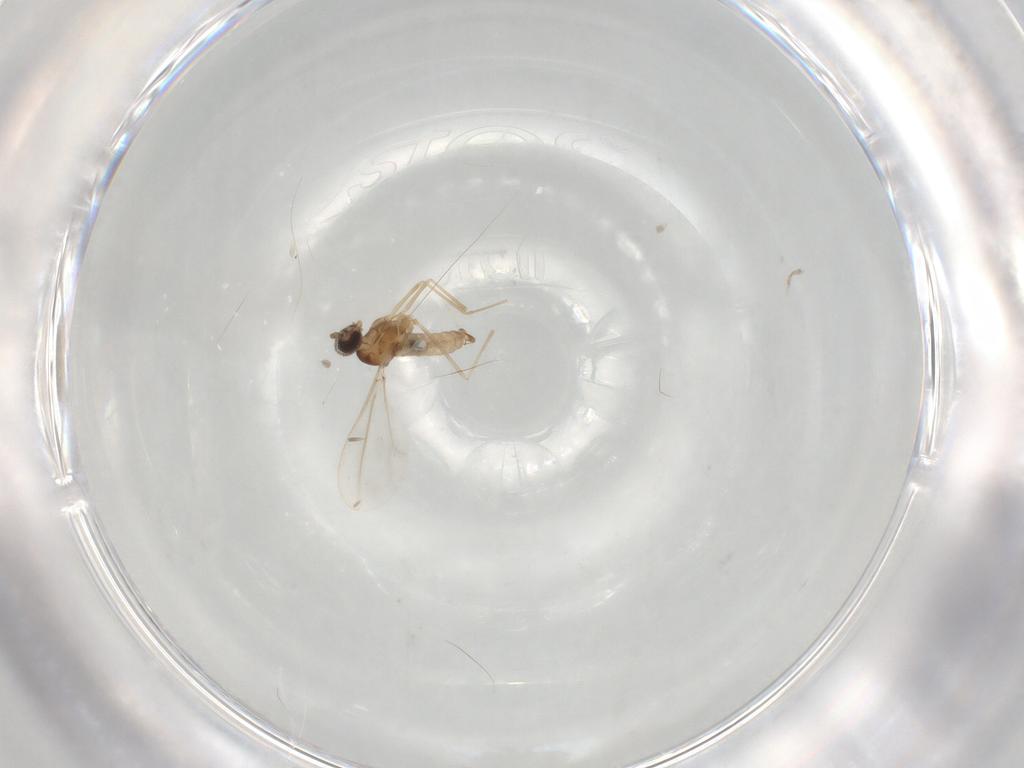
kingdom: Animalia
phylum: Arthropoda
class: Insecta
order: Diptera
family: Cecidomyiidae
